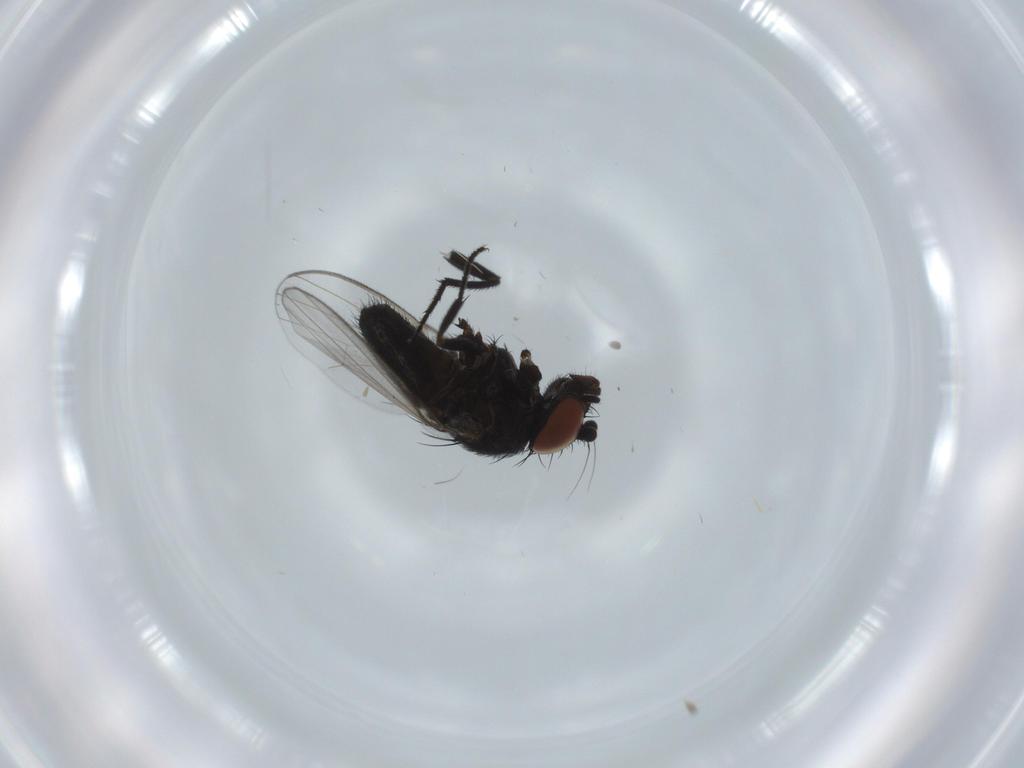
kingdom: Animalia
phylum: Arthropoda
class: Insecta
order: Diptera
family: Milichiidae
